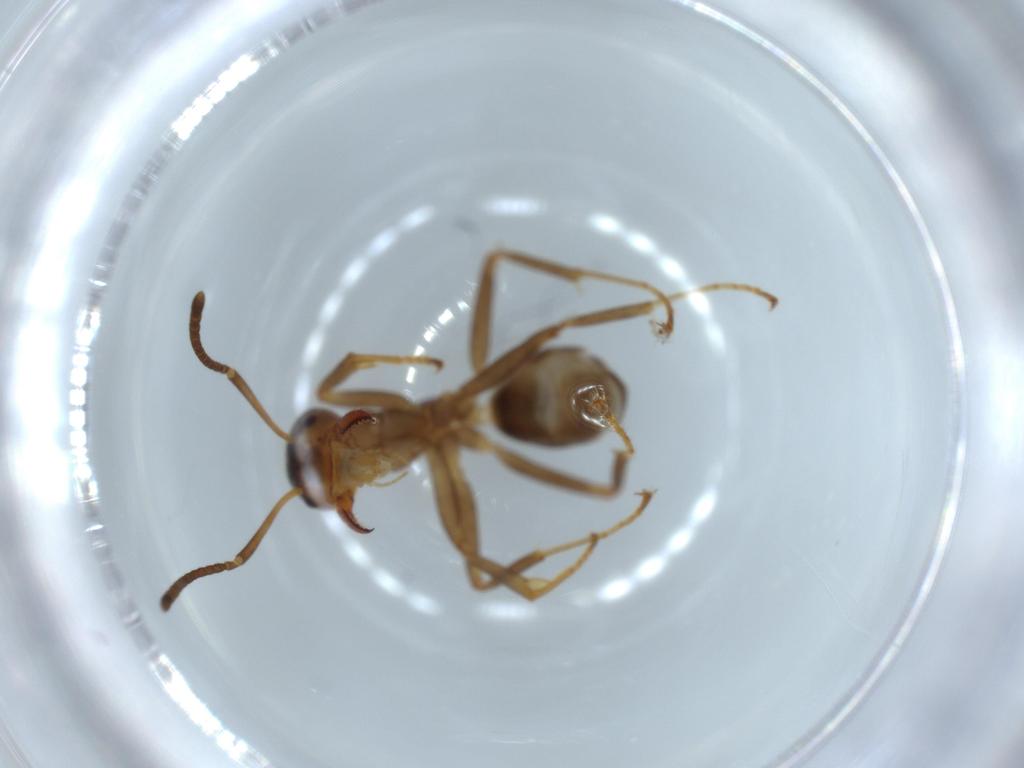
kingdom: Animalia
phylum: Arthropoda
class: Insecta
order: Hymenoptera
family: Formicidae
